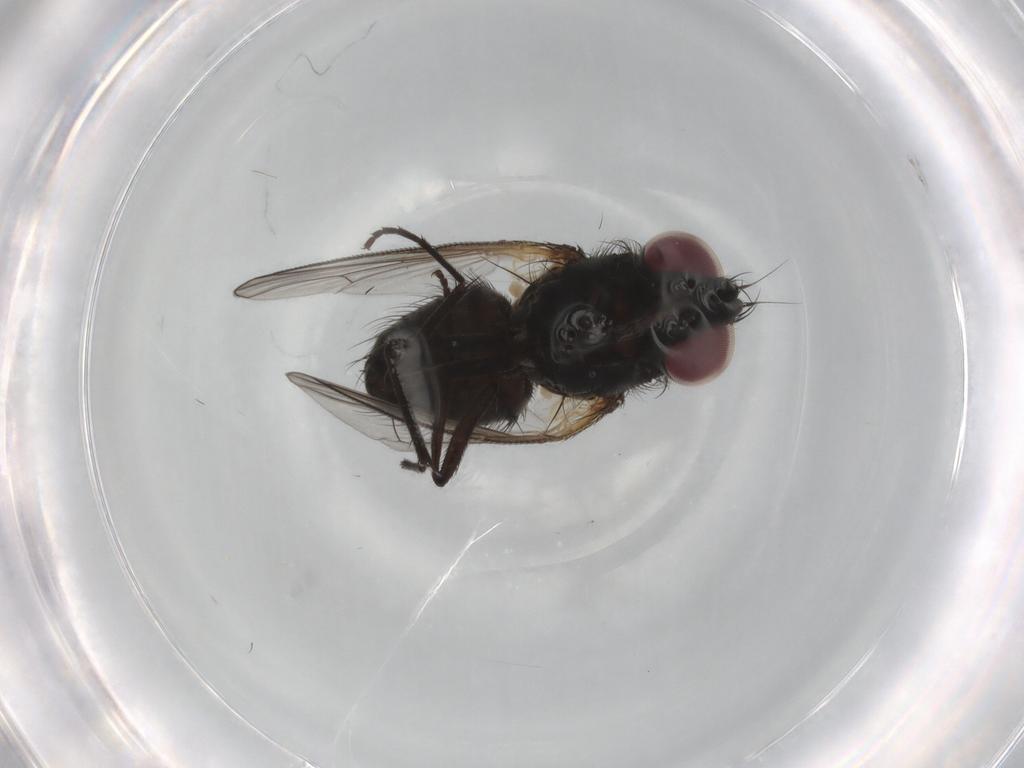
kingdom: Animalia
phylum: Arthropoda
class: Insecta
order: Diptera
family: Muscidae
